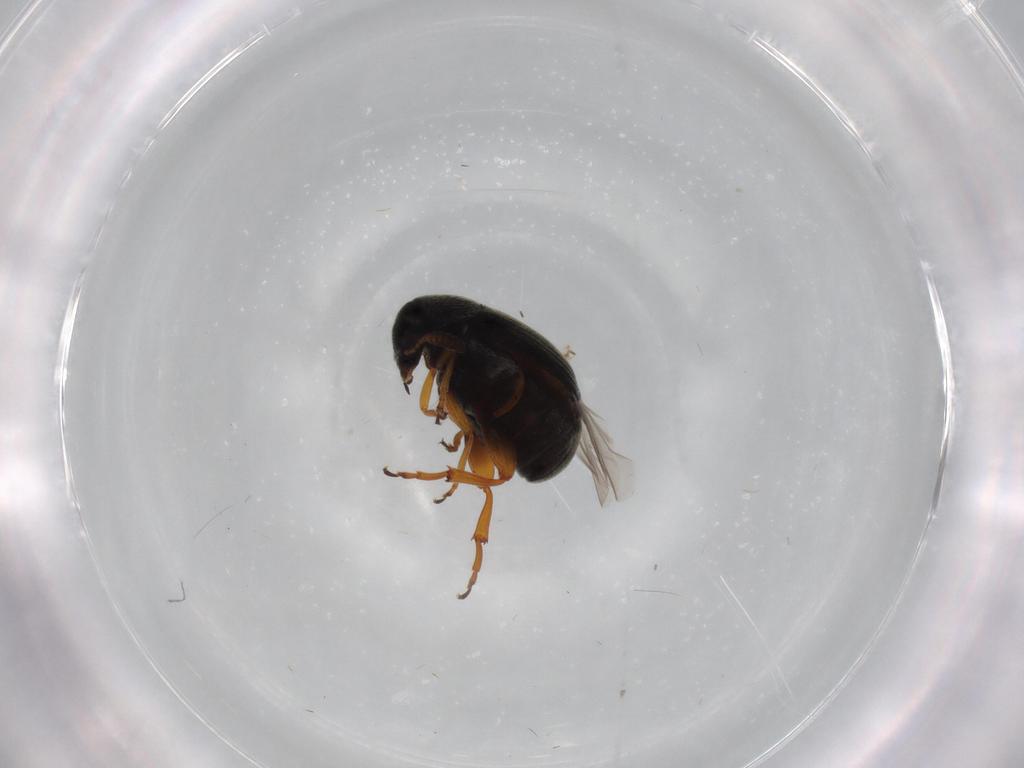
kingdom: Animalia
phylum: Arthropoda
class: Insecta
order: Coleoptera
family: Chrysomelidae
